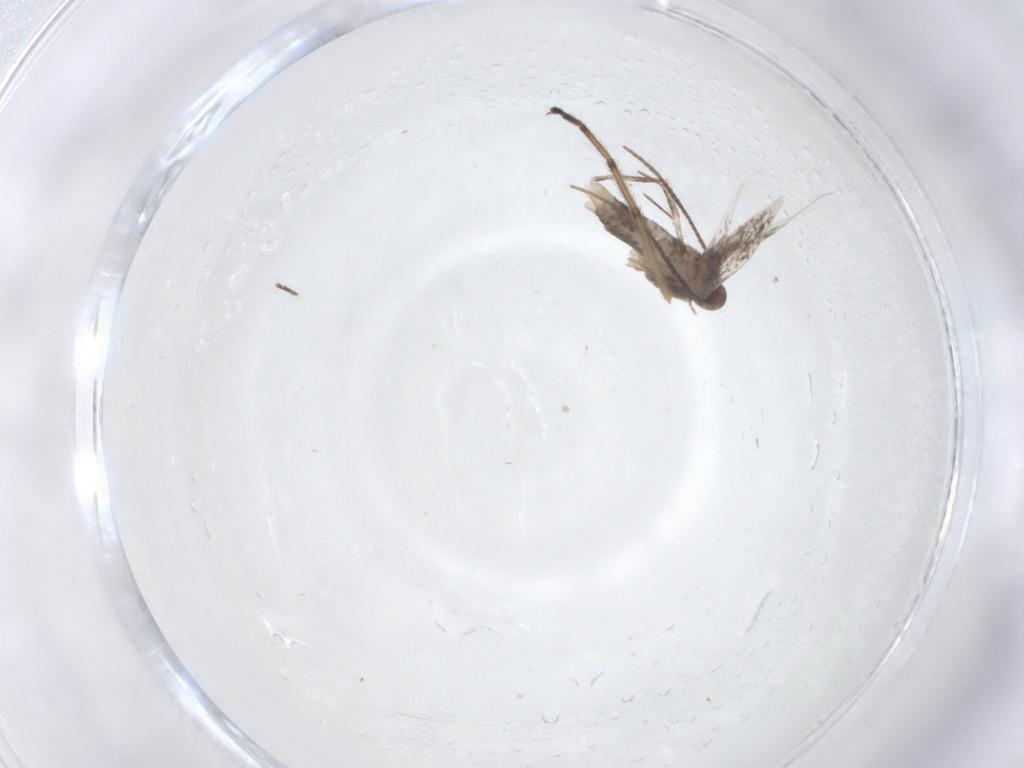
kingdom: Animalia
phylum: Arthropoda
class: Insecta
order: Lepidoptera
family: Gracillariidae
